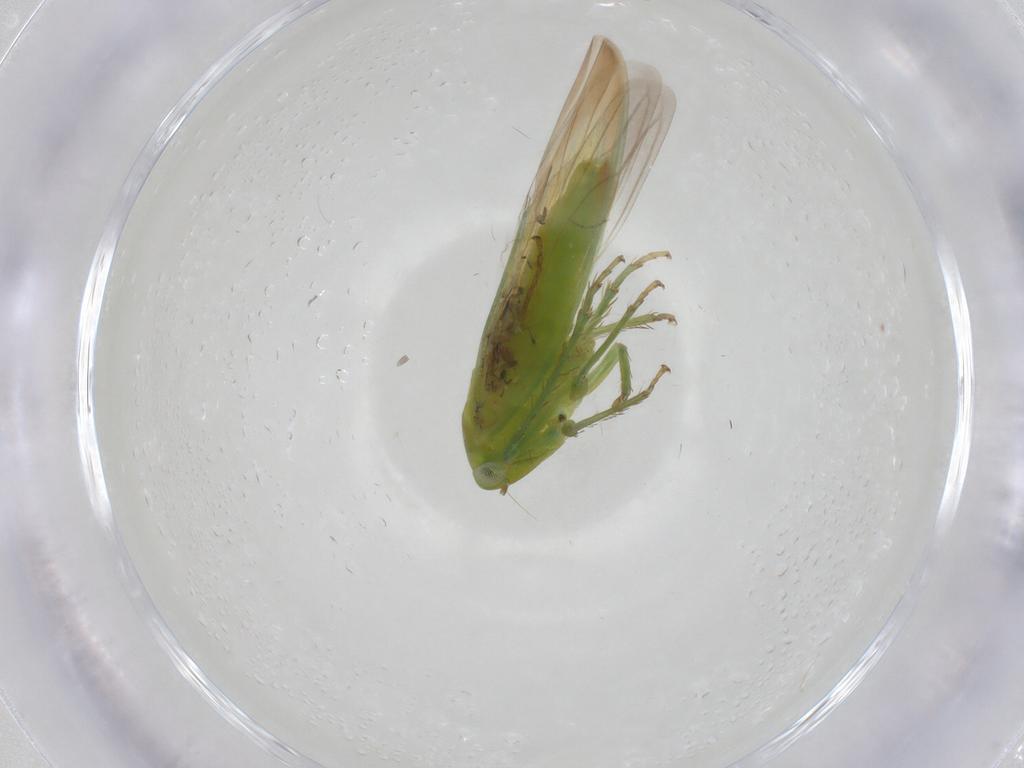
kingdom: Animalia
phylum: Arthropoda
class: Insecta
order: Hemiptera
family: Cicadellidae
